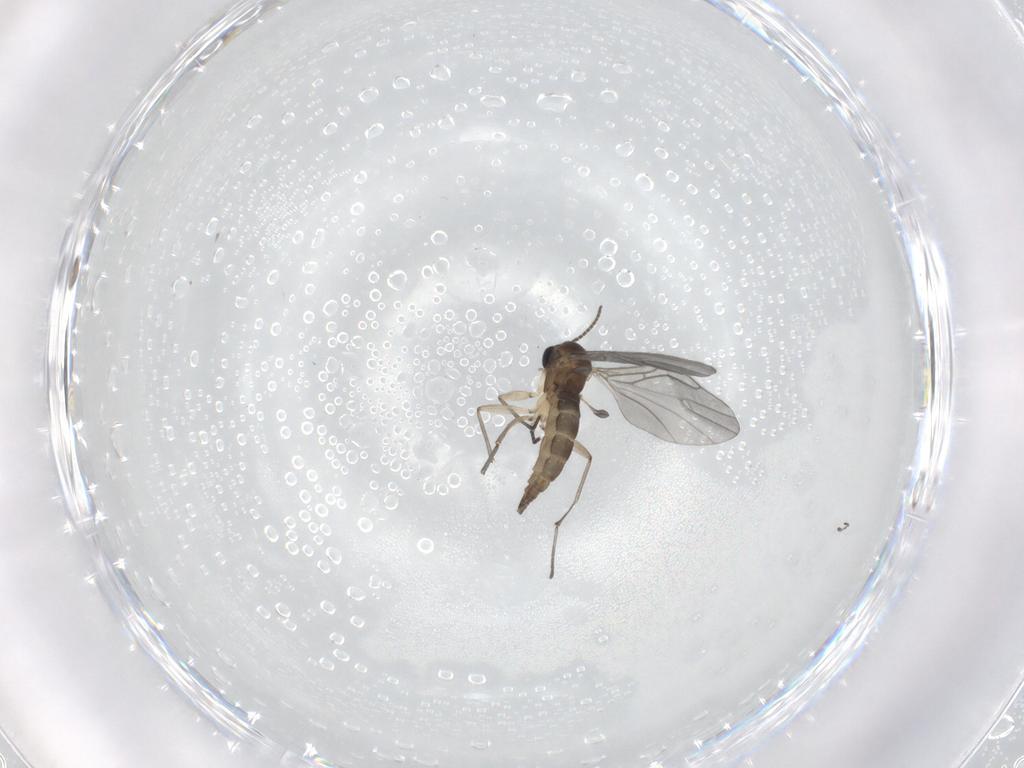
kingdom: Animalia
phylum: Arthropoda
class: Insecta
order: Diptera
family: Sciaridae
